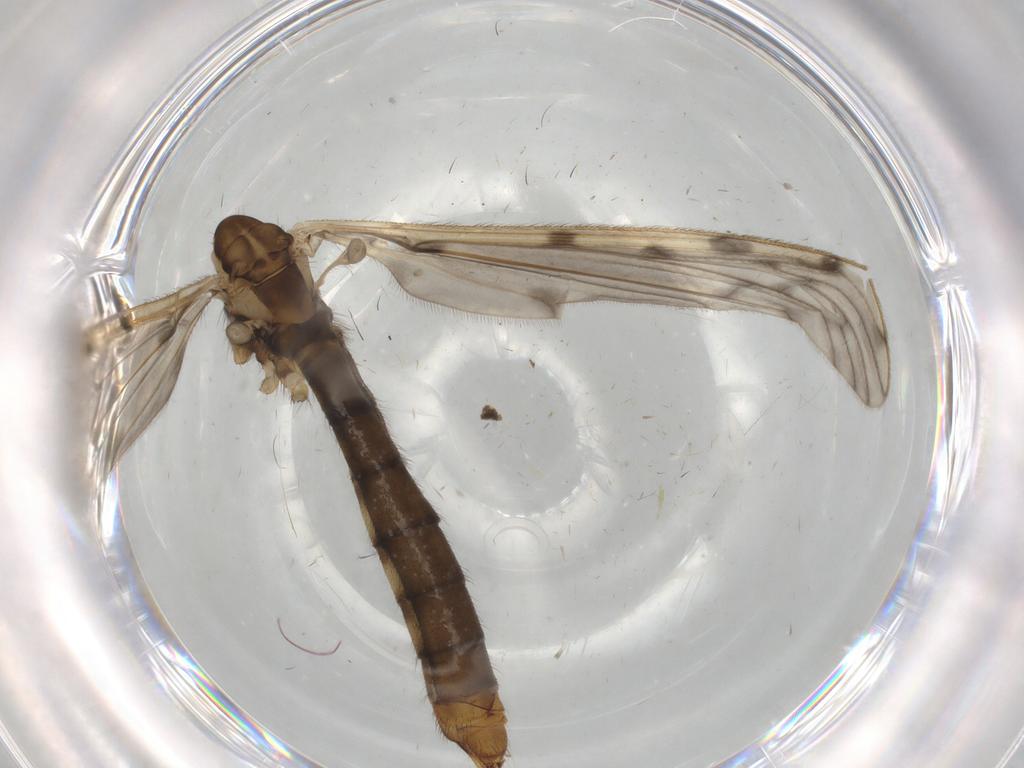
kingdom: Animalia
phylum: Arthropoda
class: Insecta
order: Diptera
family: Limoniidae
